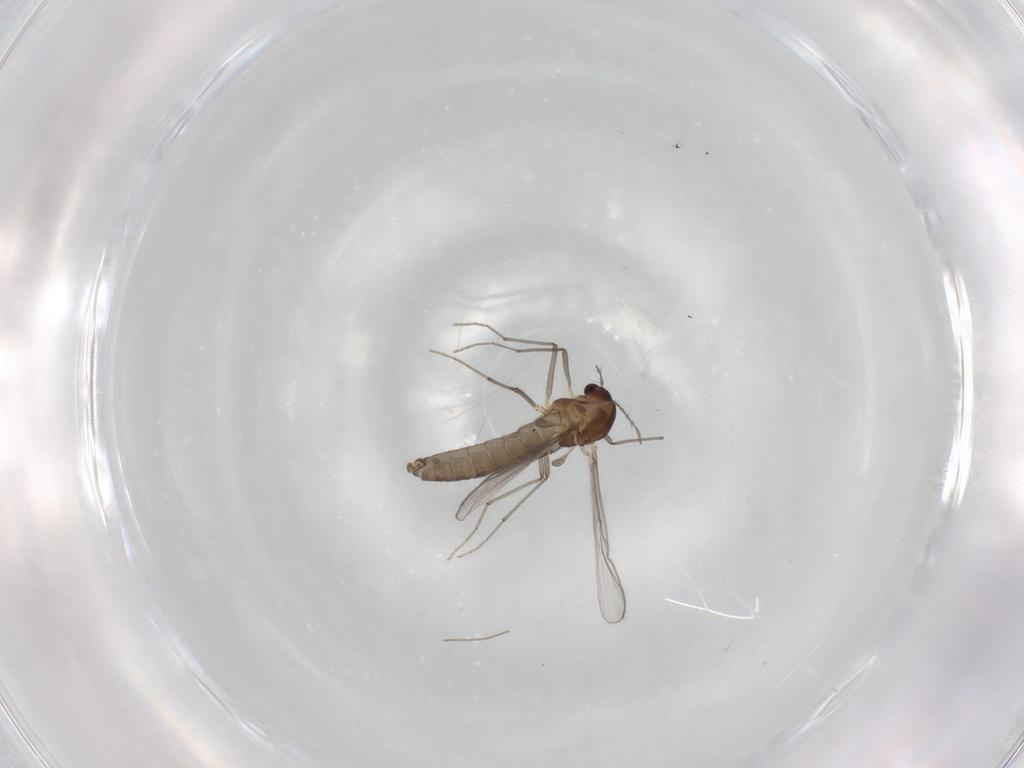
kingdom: Animalia
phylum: Arthropoda
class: Insecta
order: Diptera
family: Chironomidae
